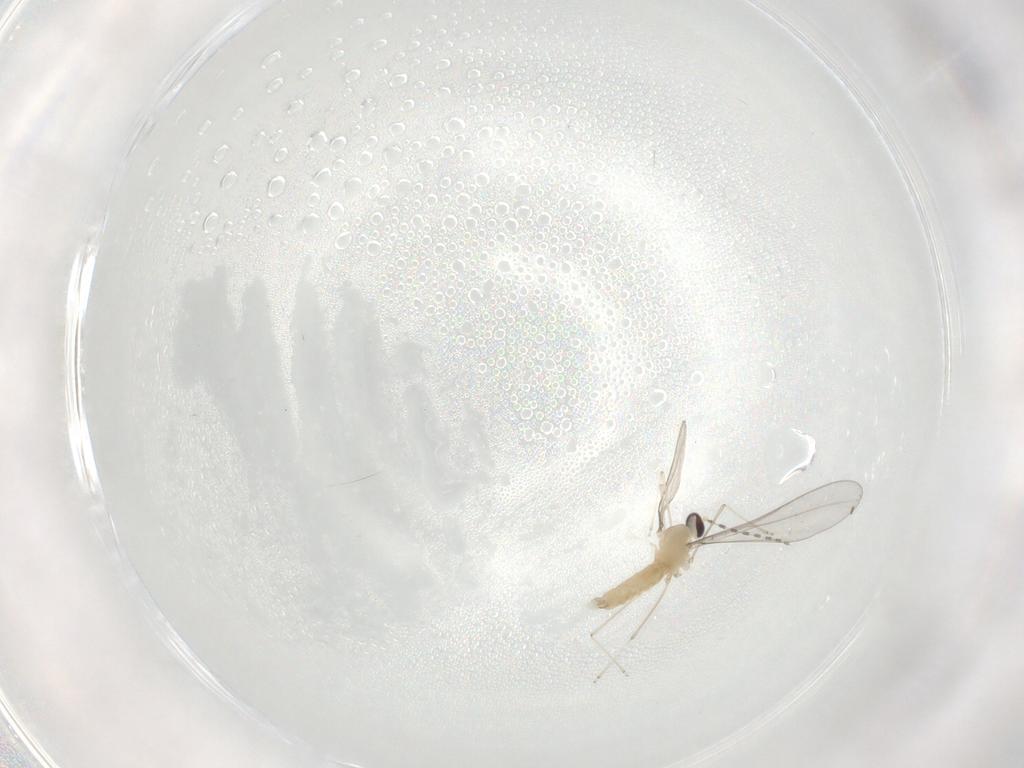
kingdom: Animalia
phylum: Arthropoda
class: Insecta
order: Diptera
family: Cecidomyiidae
